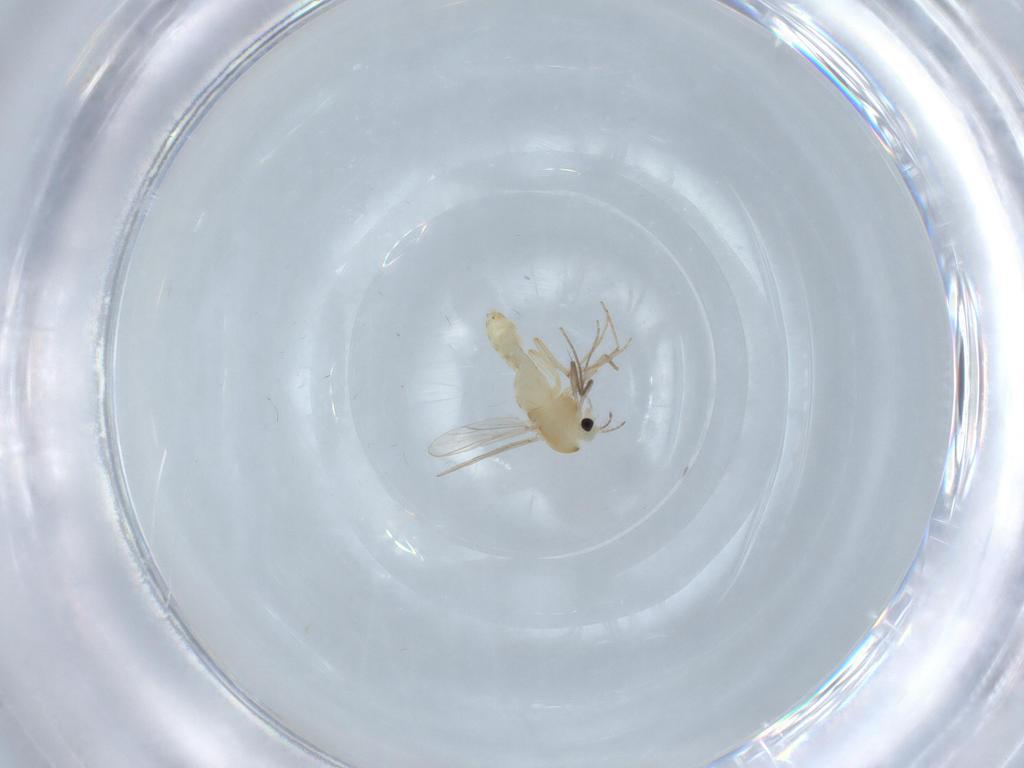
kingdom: Animalia
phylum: Arthropoda
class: Insecta
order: Diptera
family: Chironomidae
